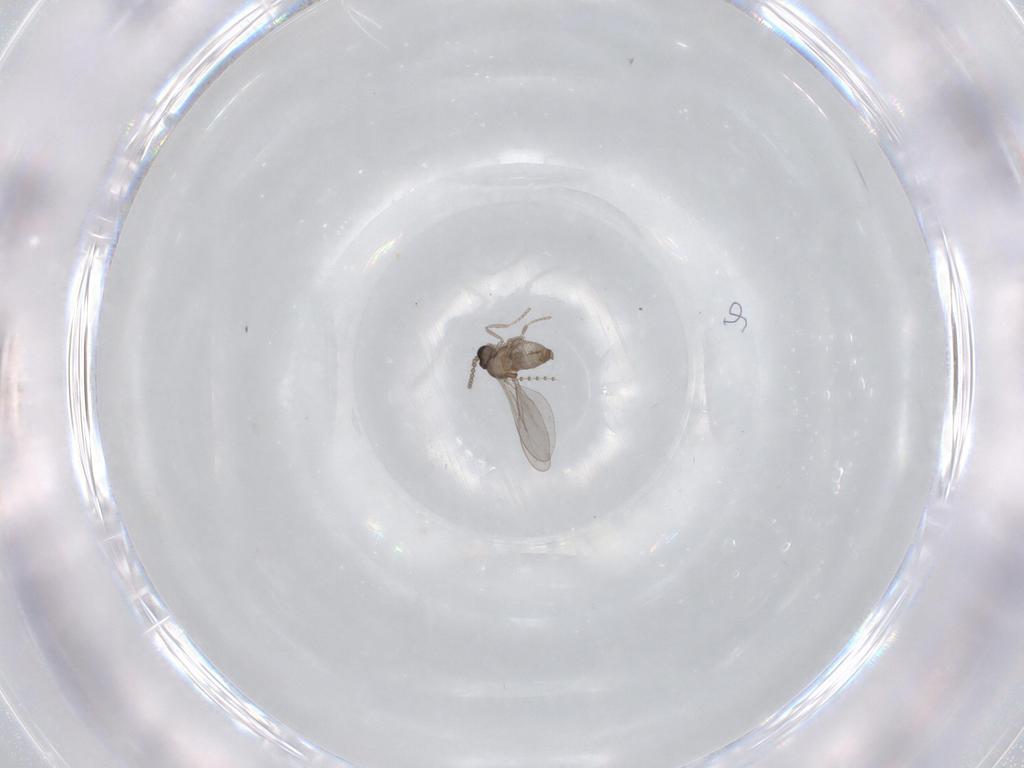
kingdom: Animalia
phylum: Arthropoda
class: Insecta
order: Diptera
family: Cecidomyiidae
